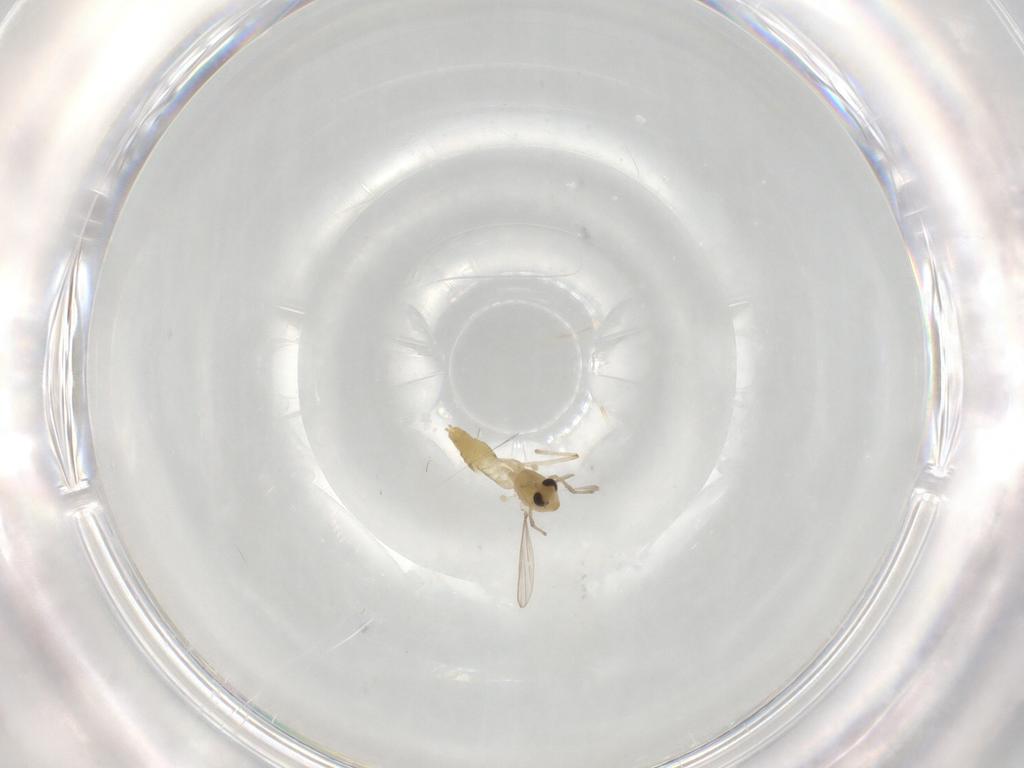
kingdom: Animalia
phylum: Arthropoda
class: Insecta
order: Diptera
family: Chironomidae
